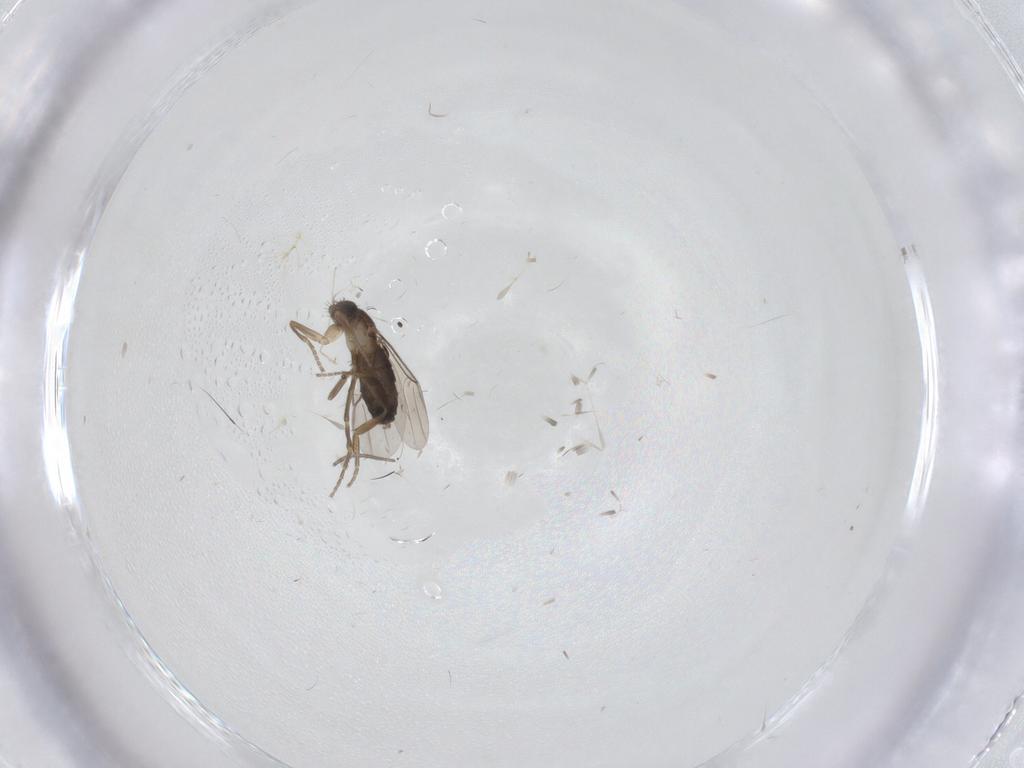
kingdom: Animalia
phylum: Arthropoda
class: Insecta
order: Diptera
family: Phoridae
